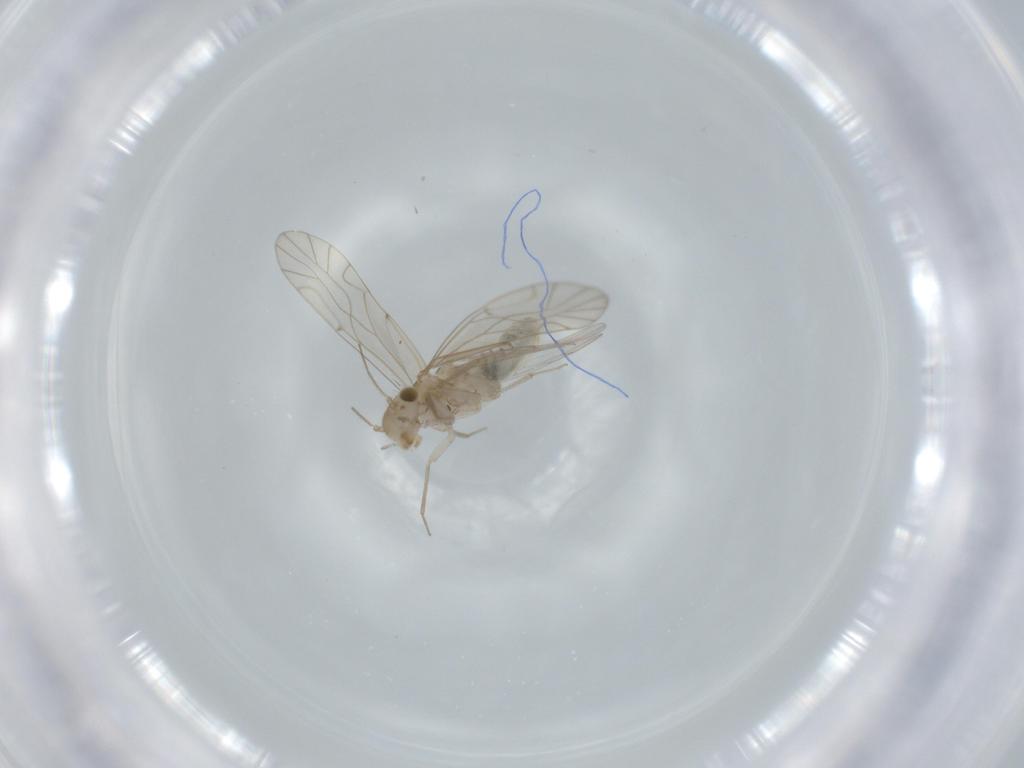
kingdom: Animalia
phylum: Arthropoda
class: Insecta
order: Psocodea
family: Lachesillidae
